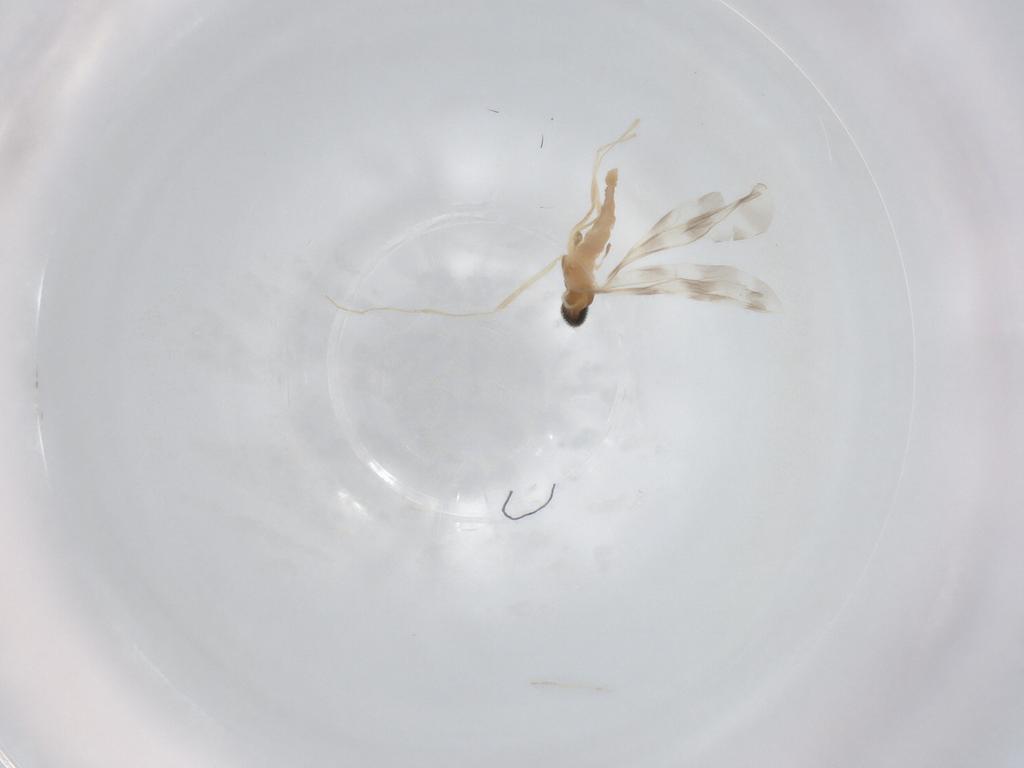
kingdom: Animalia
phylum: Arthropoda
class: Insecta
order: Diptera
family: Cecidomyiidae
